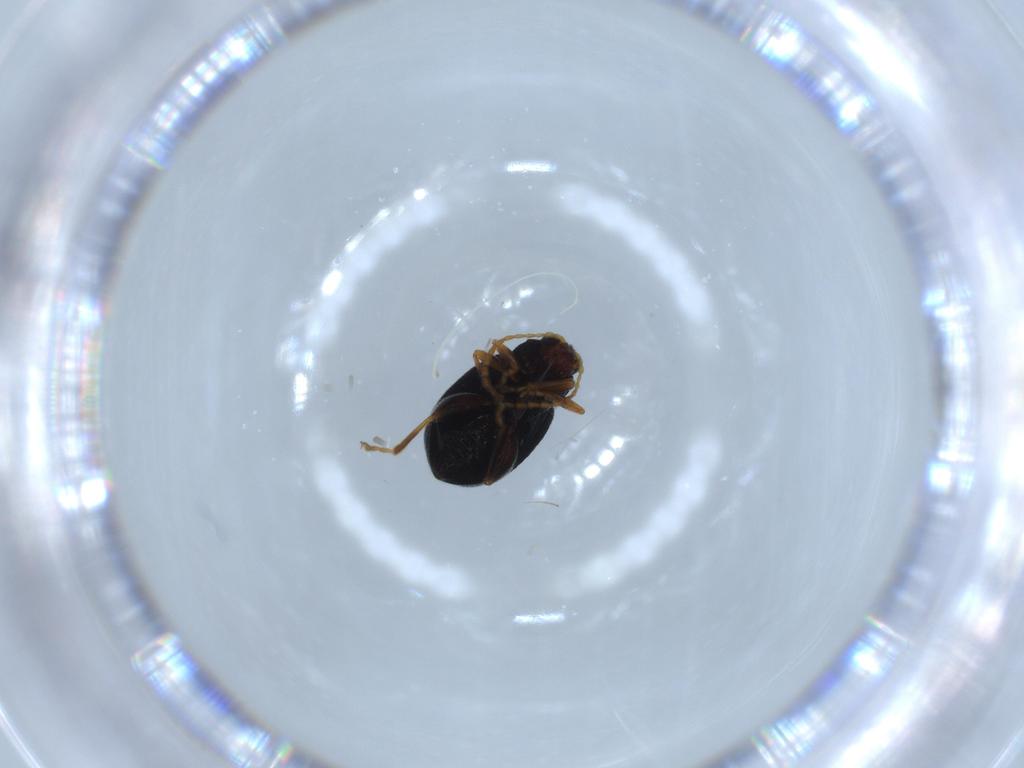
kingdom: Animalia
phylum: Arthropoda
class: Insecta
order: Coleoptera
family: Chrysomelidae
